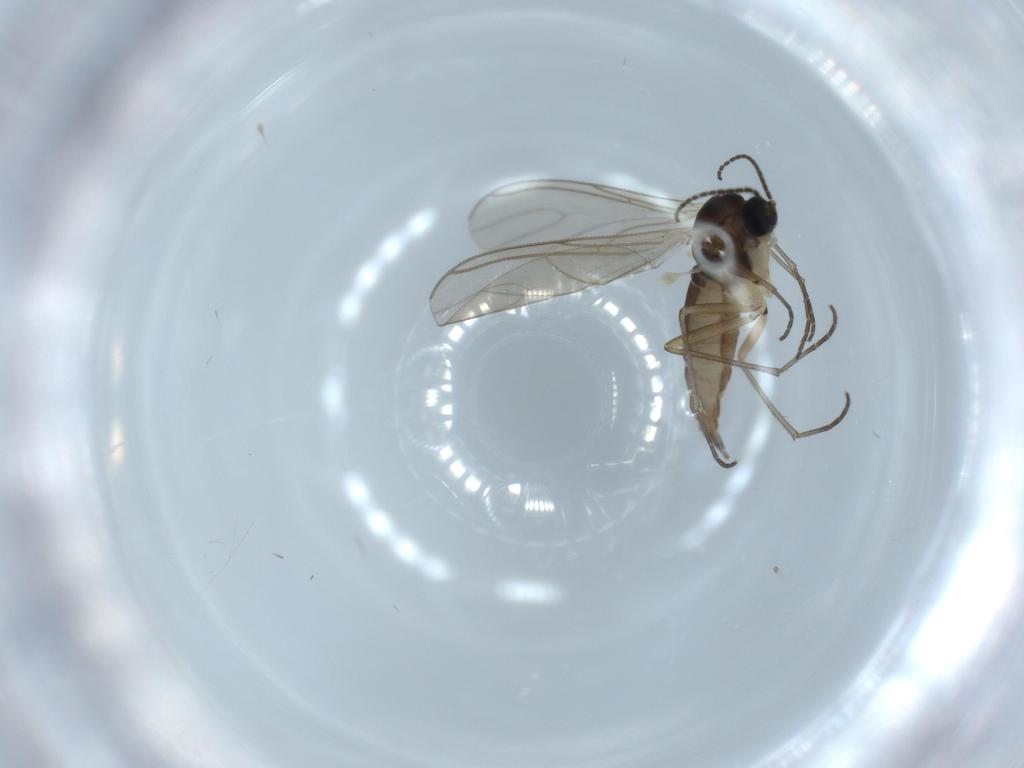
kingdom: Animalia
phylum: Arthropoda
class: Insecta
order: Diptera
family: Sciaridae
